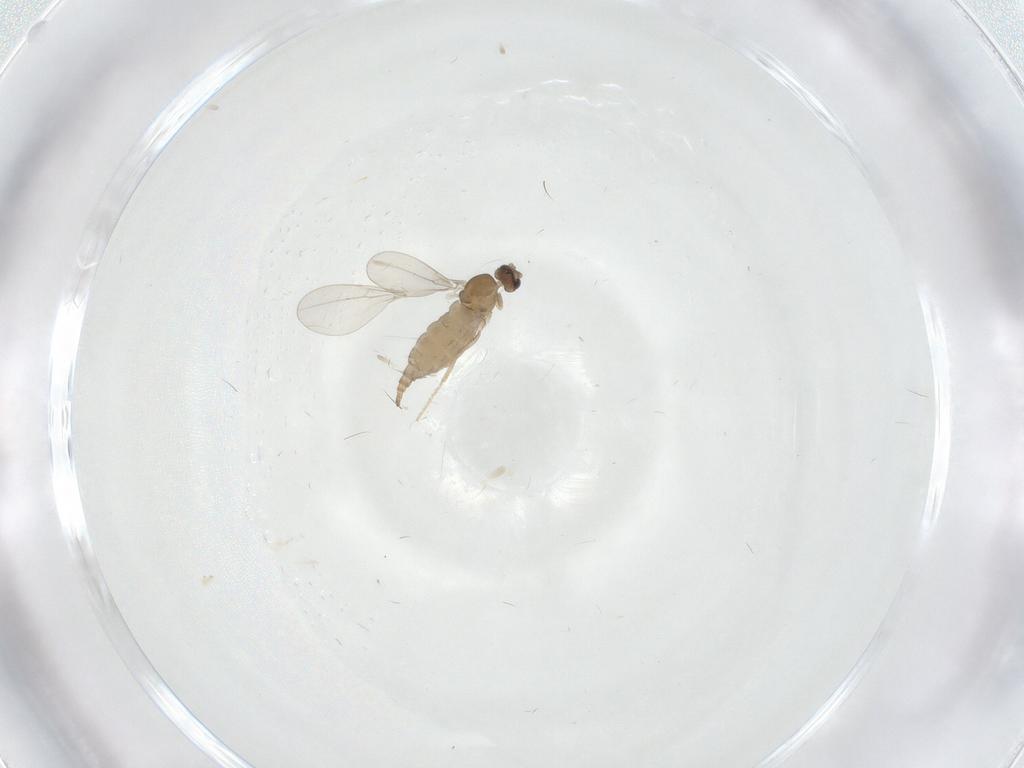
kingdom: Animalia
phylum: Arthropoda
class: Insecta
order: Diptera
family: Cecidomyiidae
